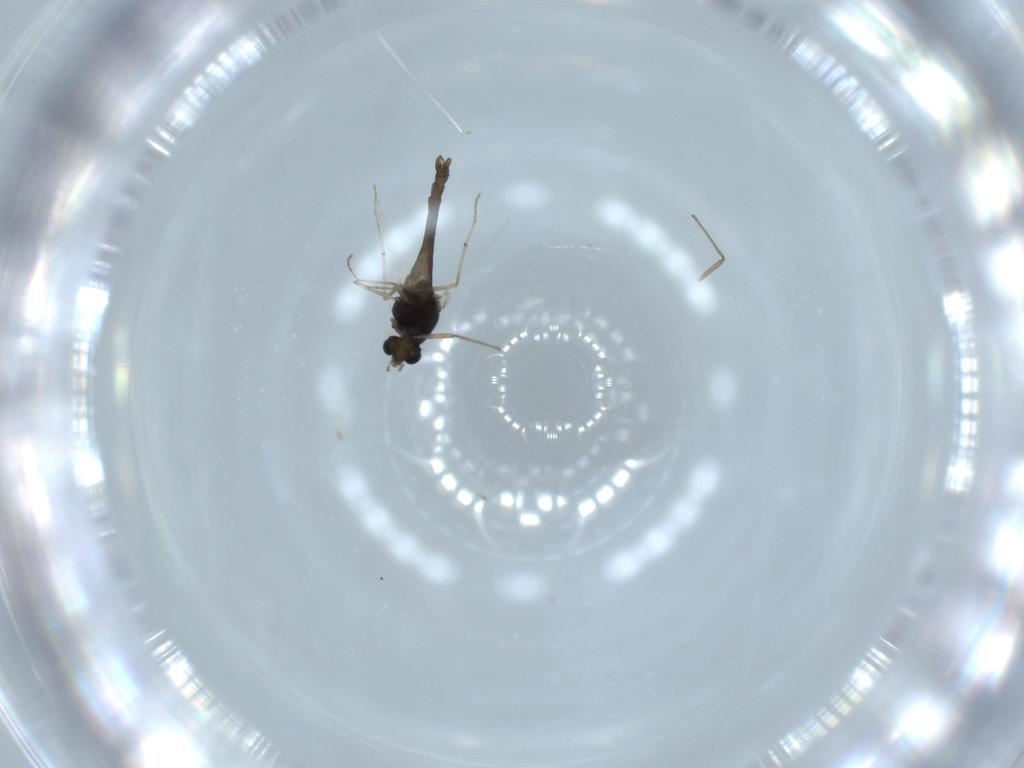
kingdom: Animalia
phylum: Arthropoda
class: Insecta
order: Diptera
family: Chironomidae
